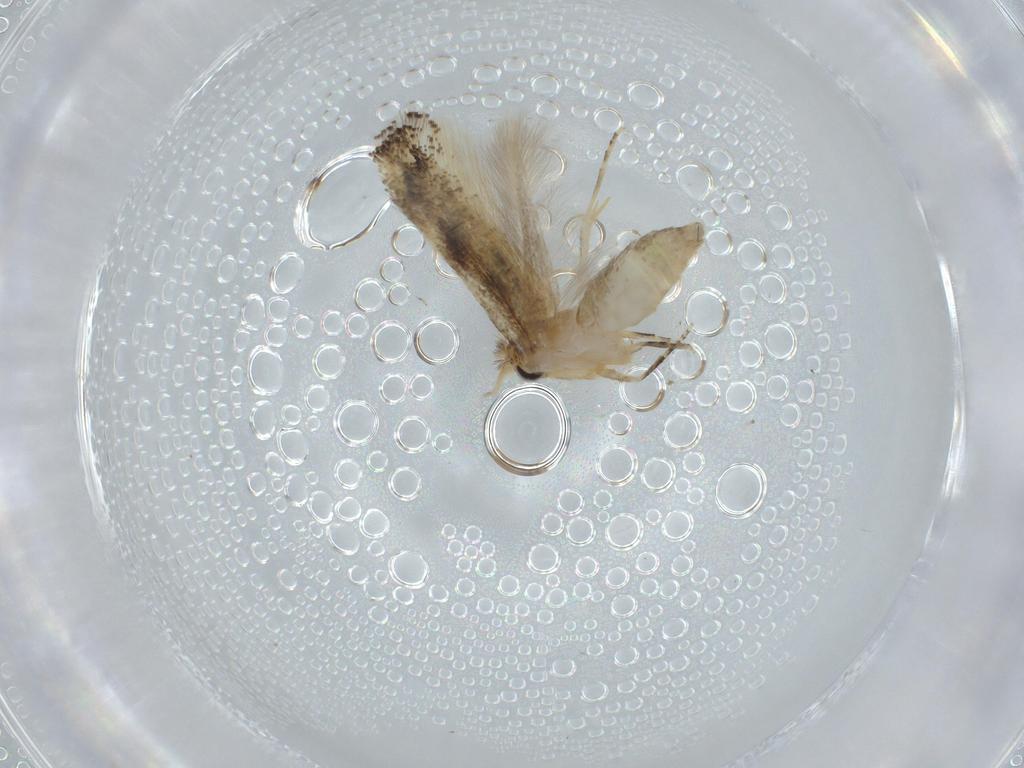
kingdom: Animalia
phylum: Arthropoda
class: Insecta
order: Lepidoptera
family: Bucculatricidae
